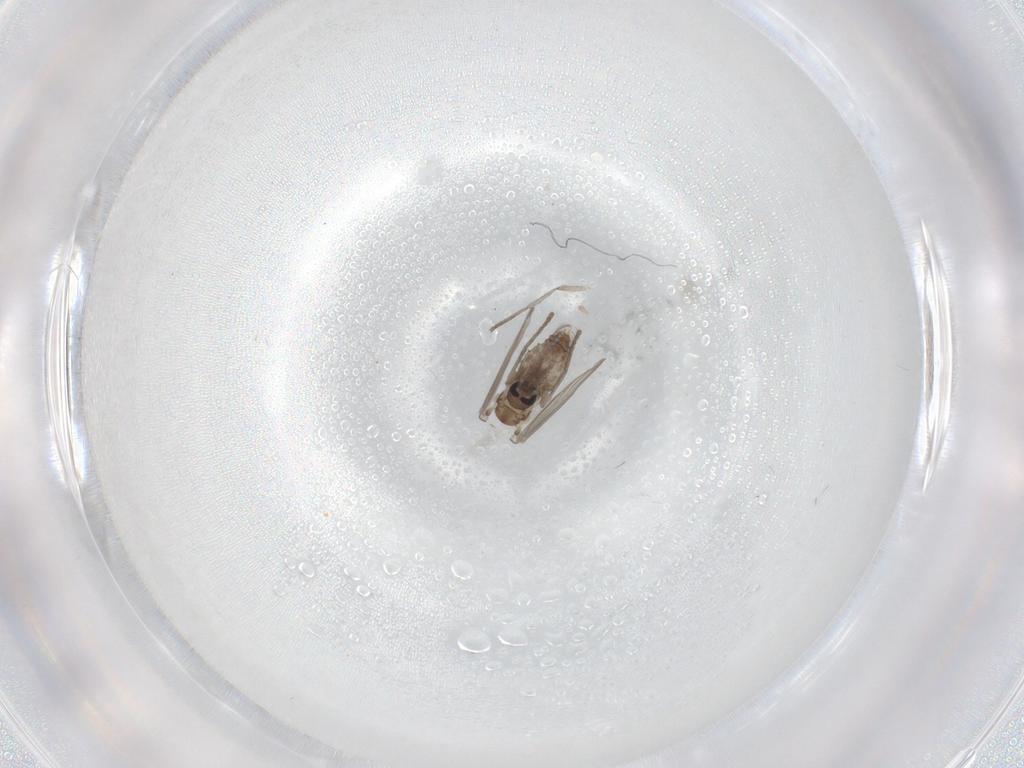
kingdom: Animalia
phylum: Arthropoda
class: Insecta
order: Diptera
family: Psychodidae
